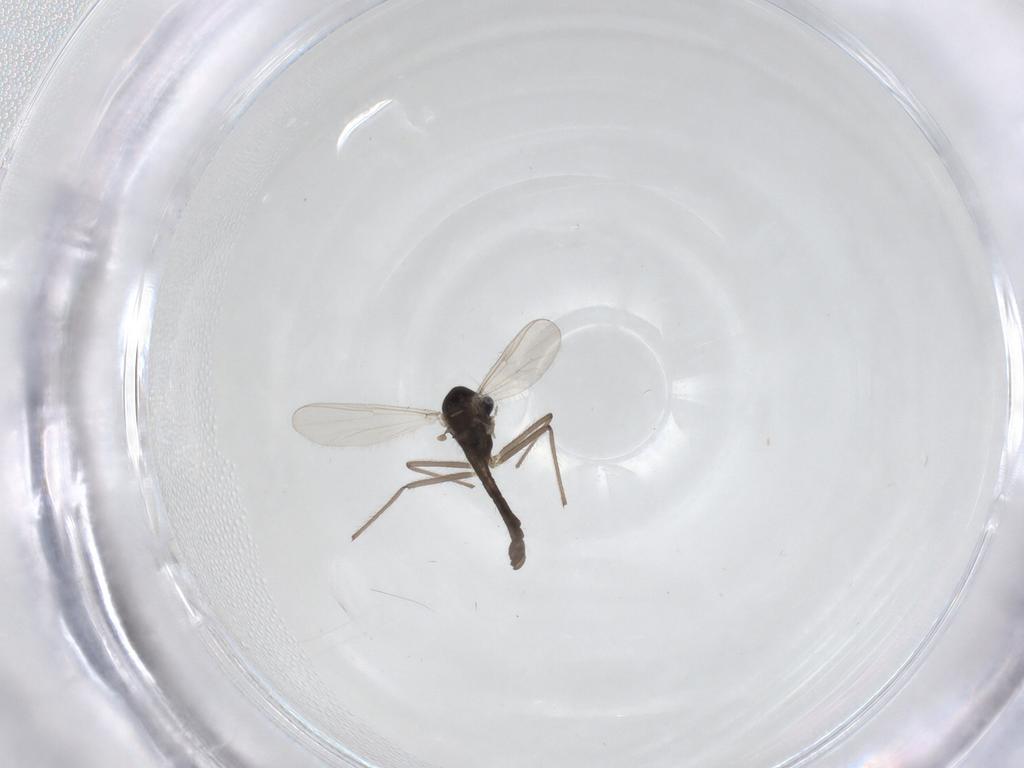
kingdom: Animalia
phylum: Arthropoda
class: Insecta
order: Diptera
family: Chironomidae
